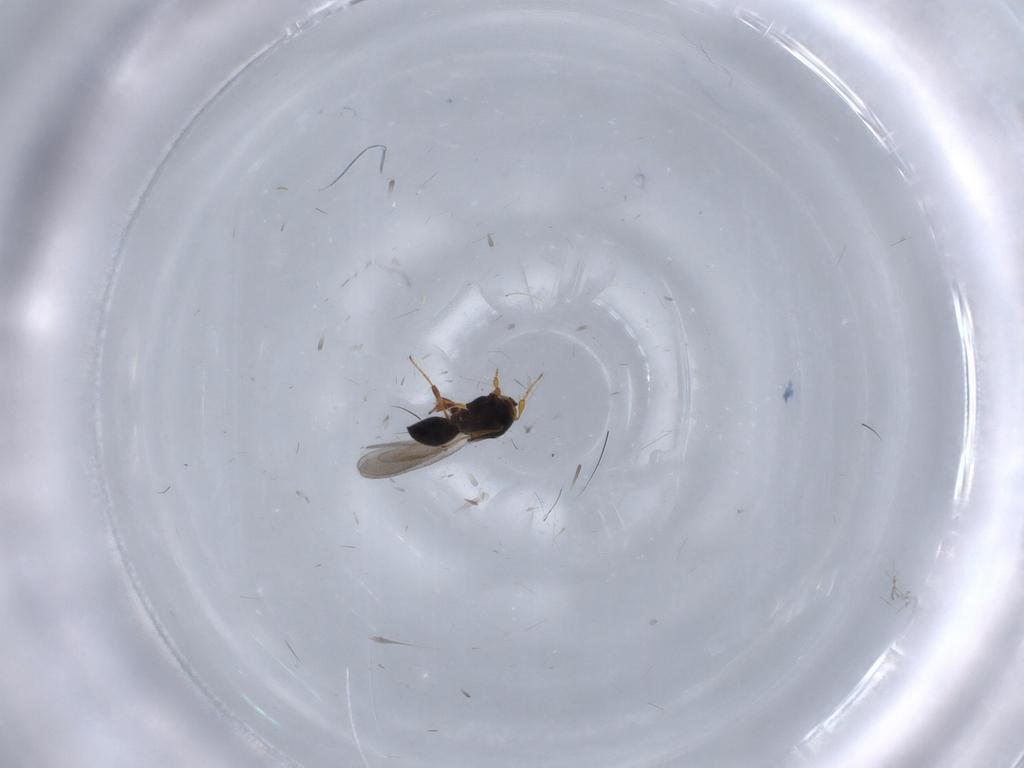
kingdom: Animalia
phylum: Arthropoda
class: Insecta
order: Hymenoptera
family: Platygastridae
